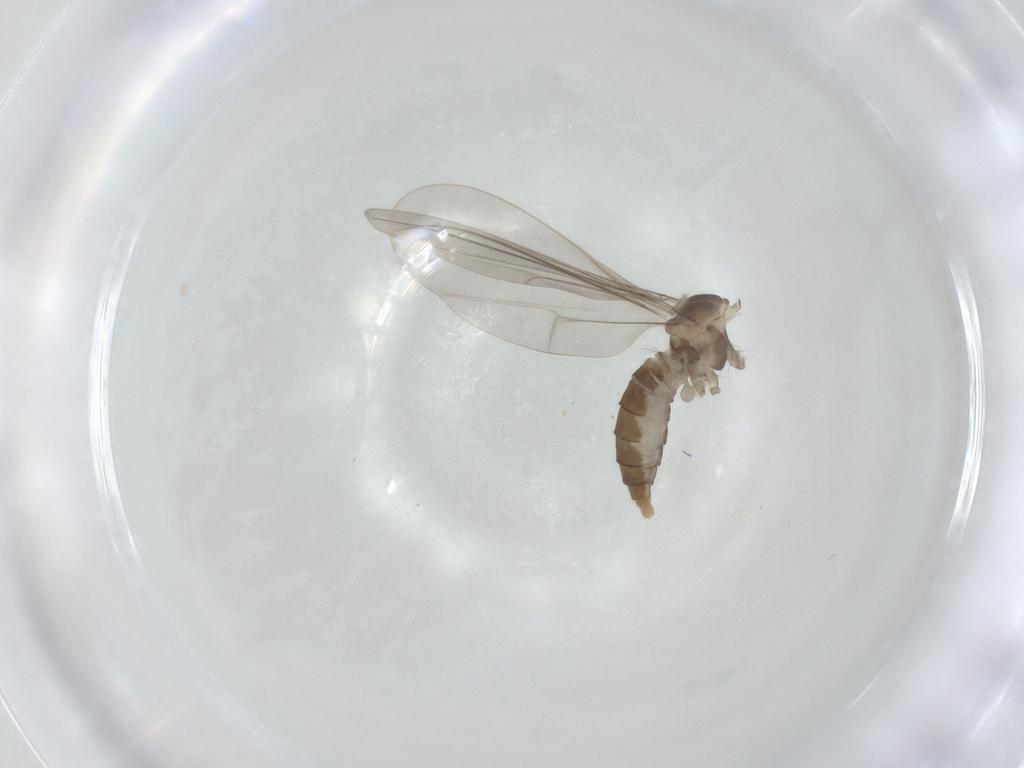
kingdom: Animalia
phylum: Arthropoda
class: Insecta
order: Diptera
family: Cecidomyiidae
